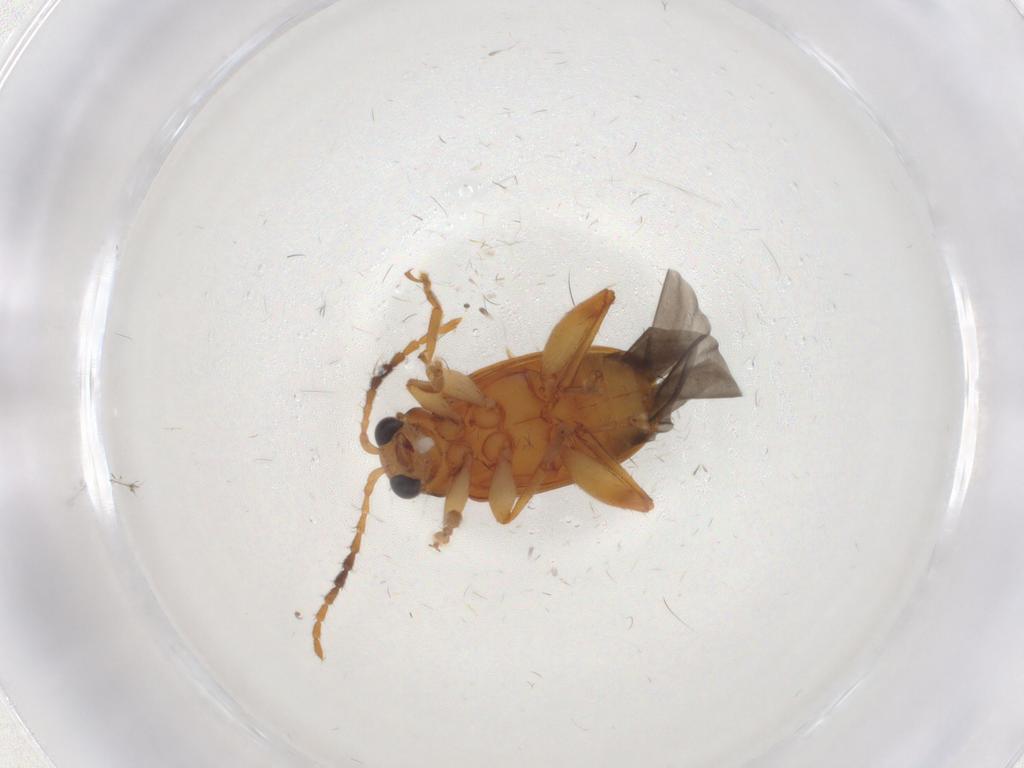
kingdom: Animalia
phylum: Arthropoda
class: Insecta
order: Coleoptera
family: Chrysomelidae
